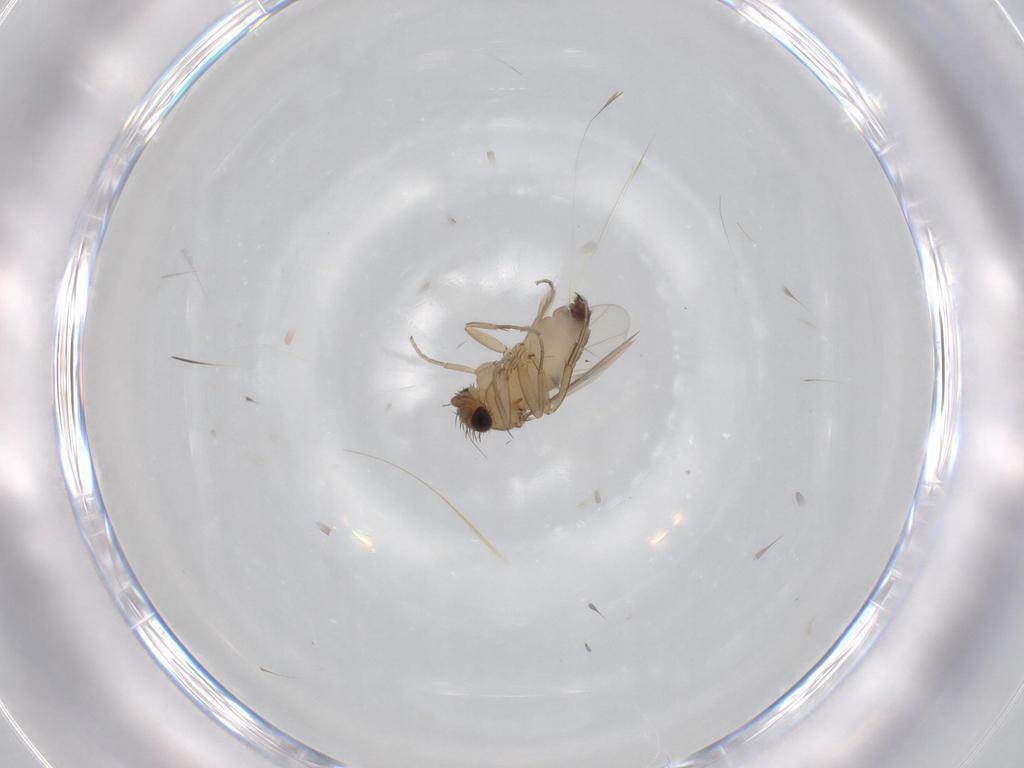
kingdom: Animalia
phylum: Arthropoda
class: Insecta
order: Diptera
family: Phoridae
